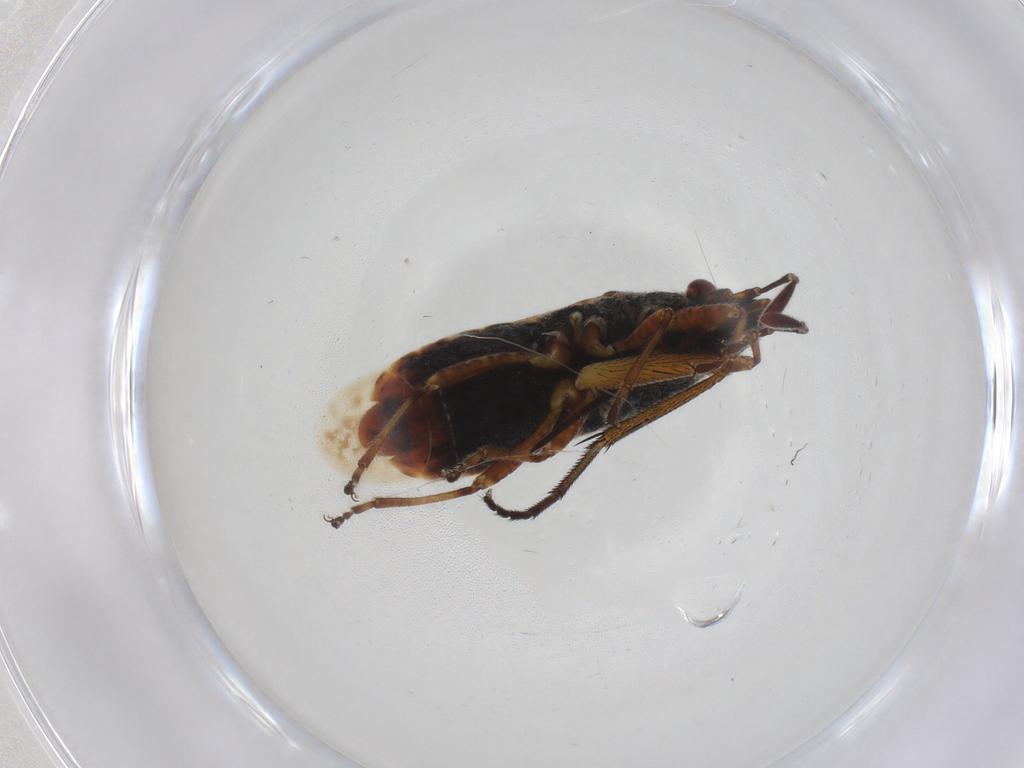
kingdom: Animalia
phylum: Arthropoda
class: Insecta
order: Hemiptera
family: Lygaeidae
